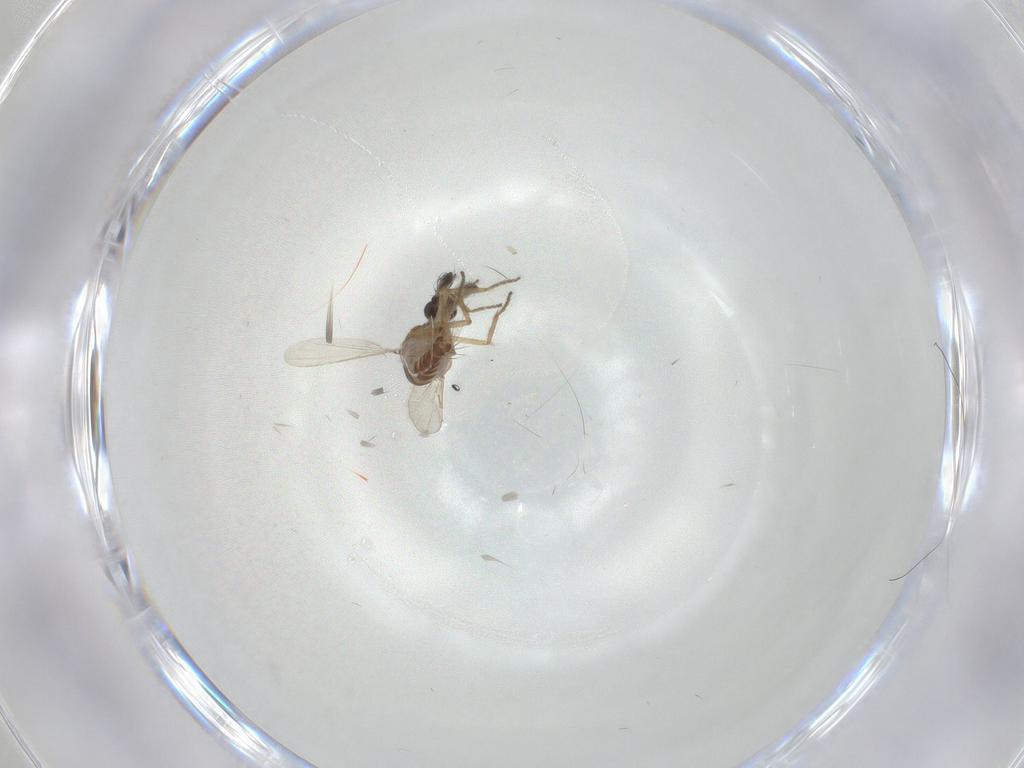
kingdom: Animalia
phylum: Arthropoda
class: Insecta
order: Diptera
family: Ceratopogonidae
